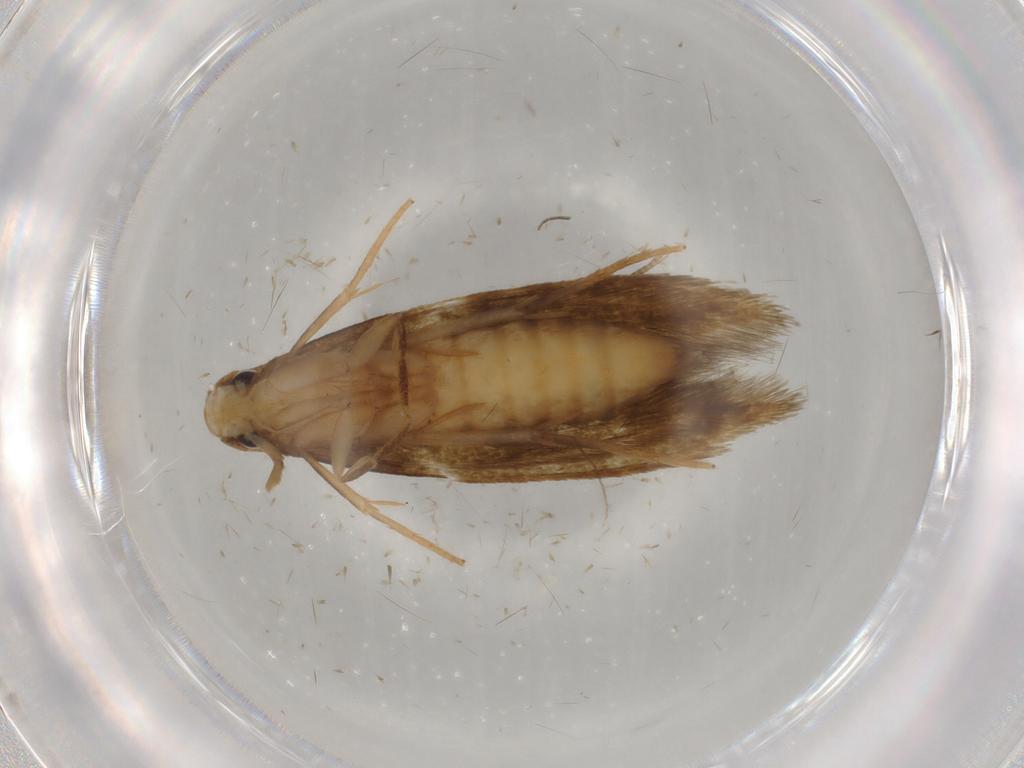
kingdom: Animalia
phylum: Arthropoda
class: Insecta
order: Lepidoptera
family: Tineidae
